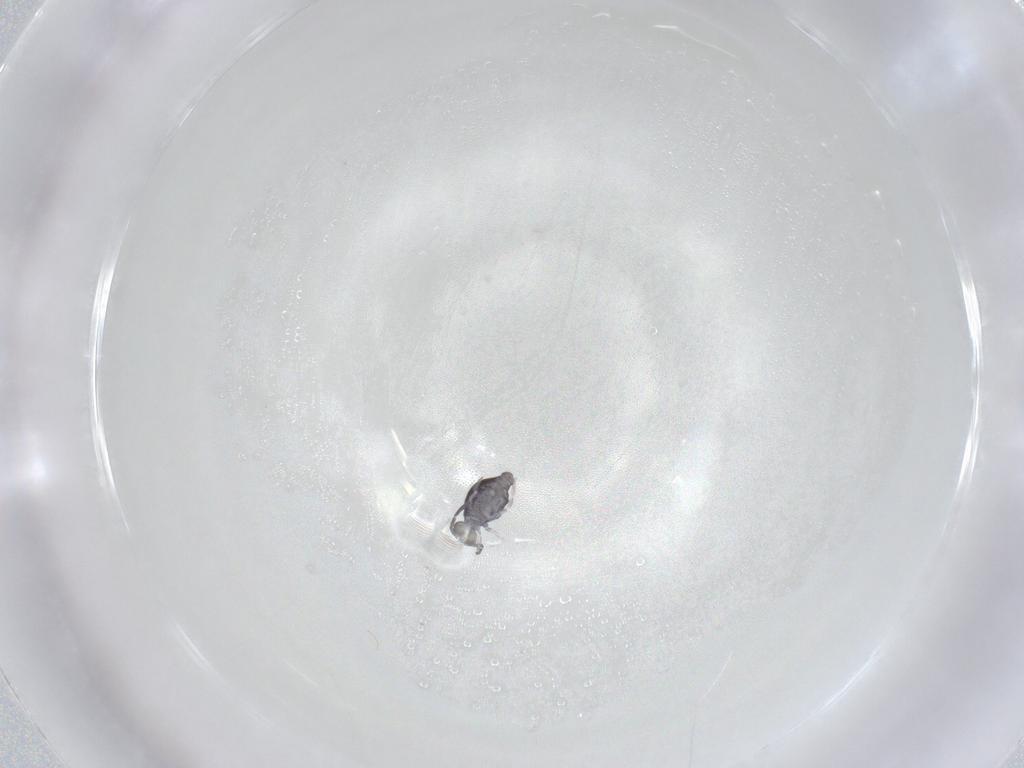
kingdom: Animalia
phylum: Arthropoda
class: Collembola
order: Symphypleona
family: Katiannidae
